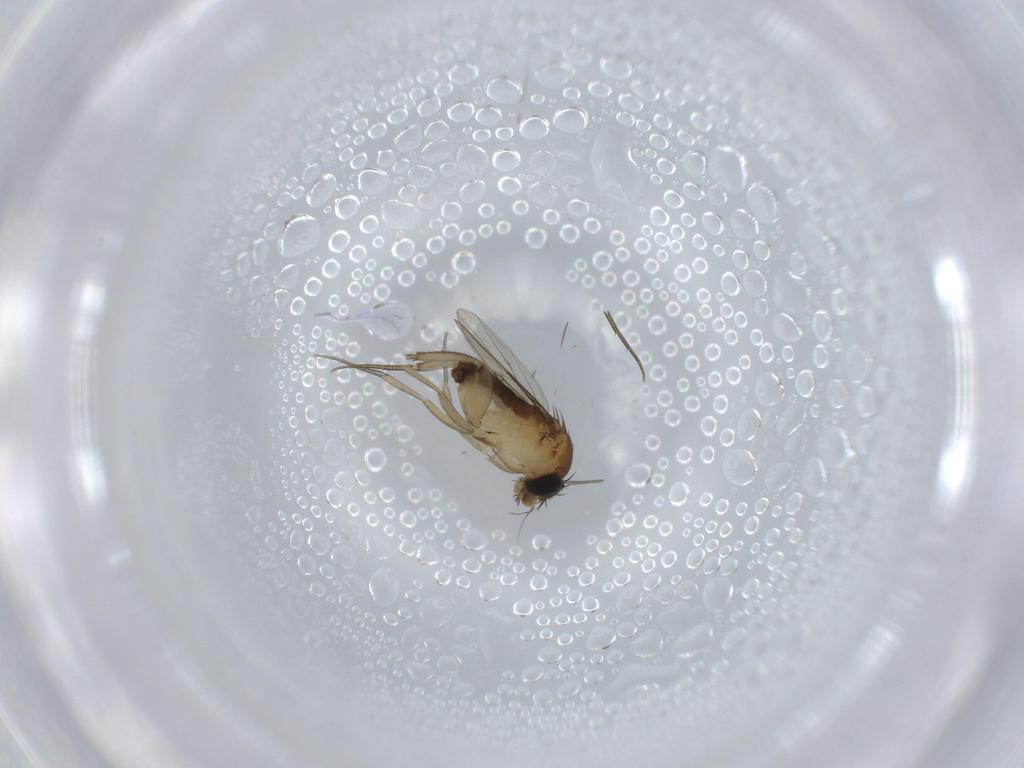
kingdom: Animalia
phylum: Arthropoda
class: Insecta
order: Diptera
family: Phoridae
